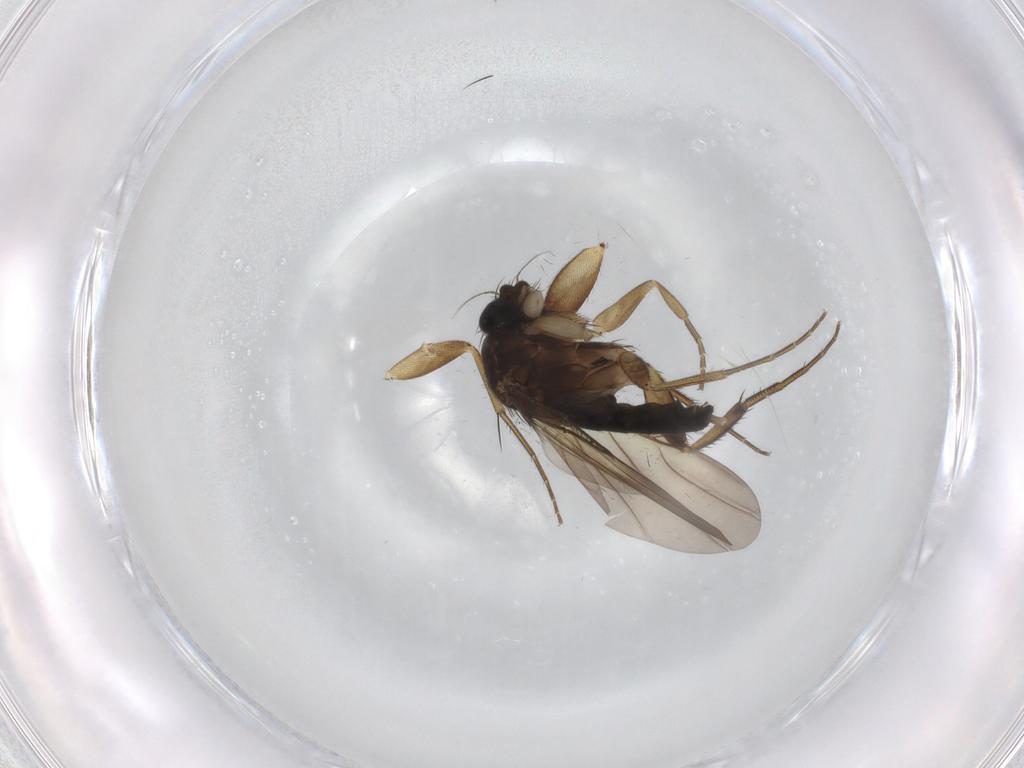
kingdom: Animalia
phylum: Arthropoda
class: Insecta
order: Diptera
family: Phoridae
